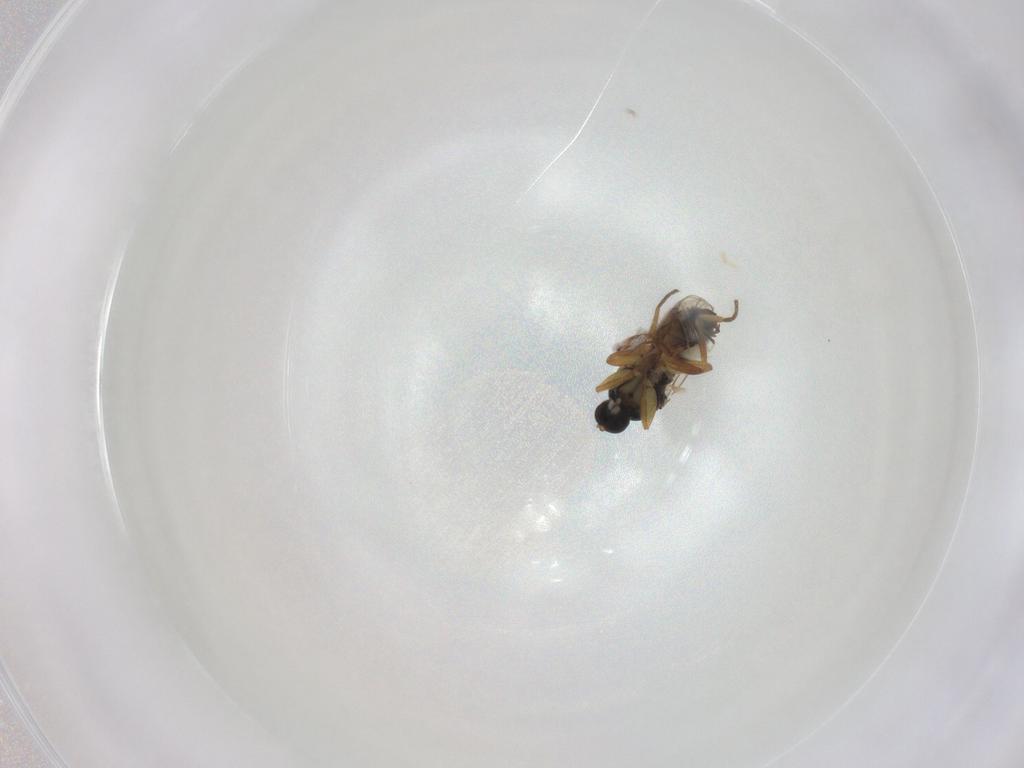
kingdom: Animalia
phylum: Arthropoda
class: Insecta
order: Diptera
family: Hybotidae
